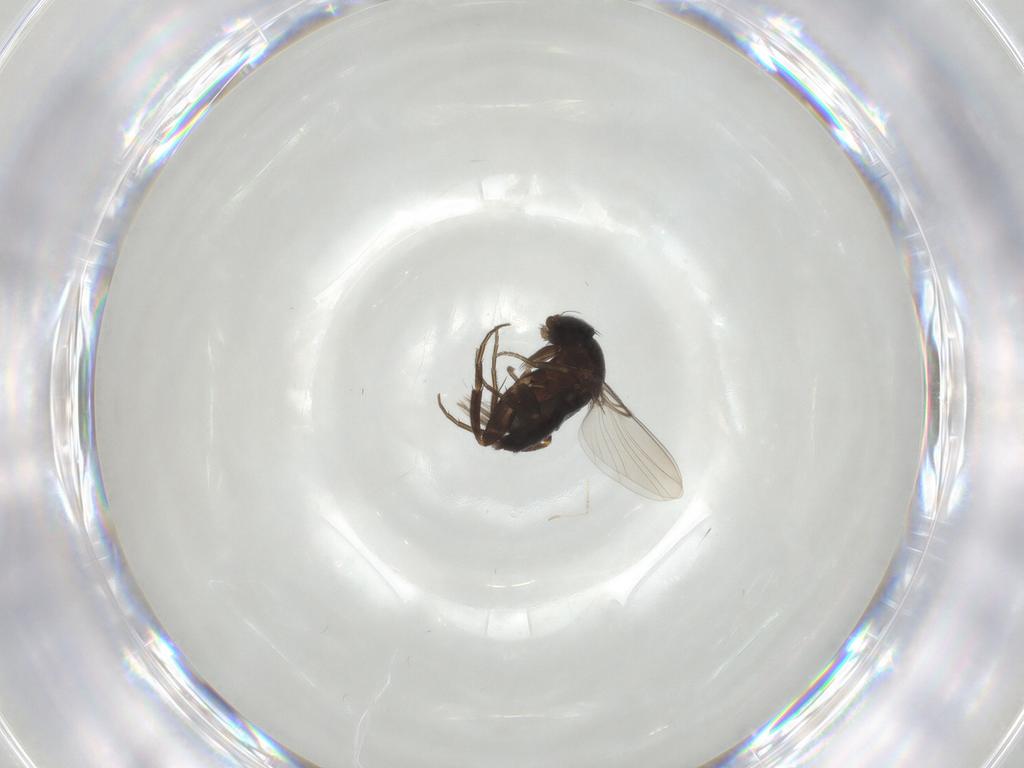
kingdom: Animalia
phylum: Arthropoda
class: Insecta
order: Diptera
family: Phoridae
